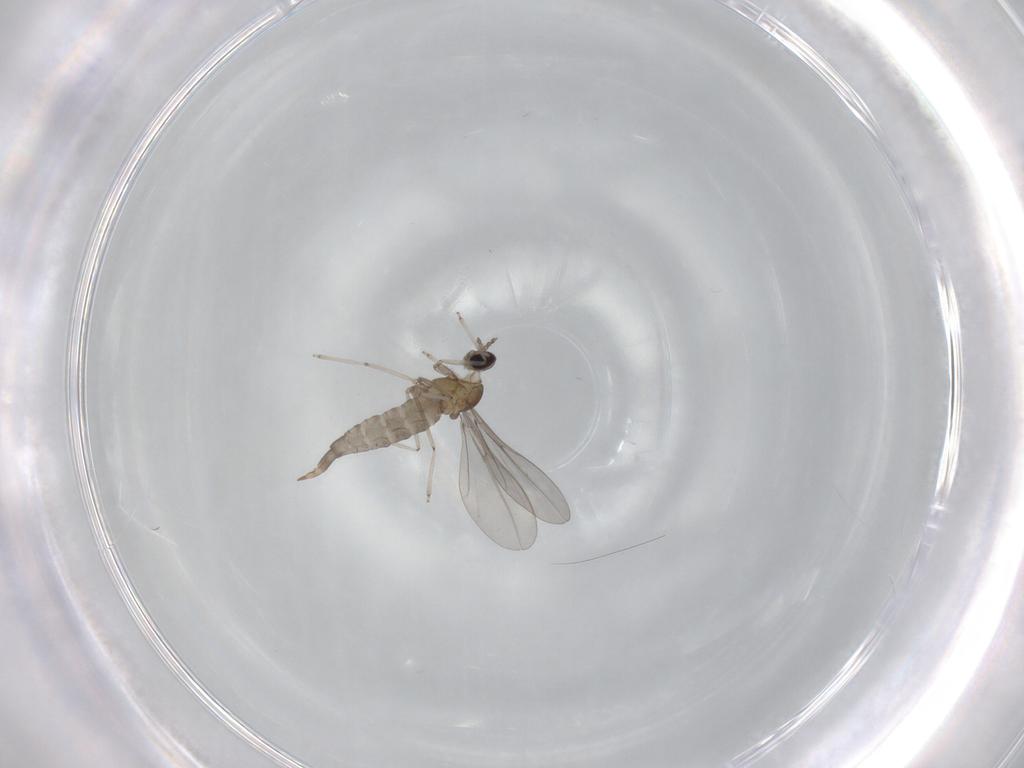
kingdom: Animalia
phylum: Arthropoda
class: Insecta
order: Diptera
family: Cecidomyiidae
